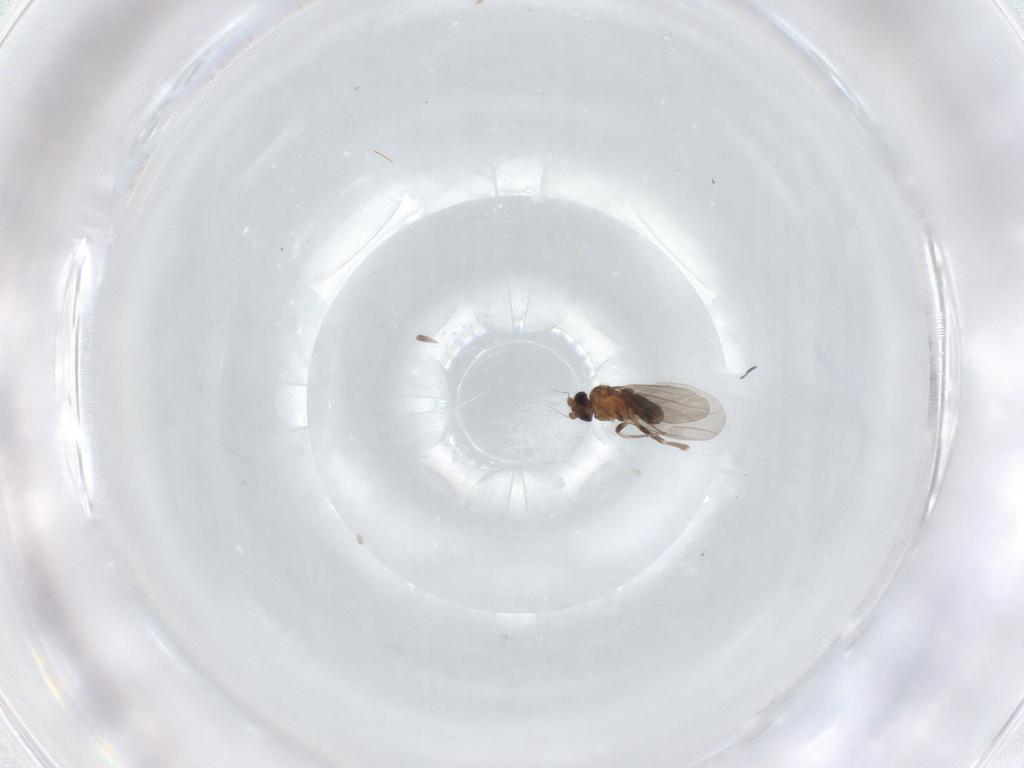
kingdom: Animalia
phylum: Arthropoda
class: Insecta
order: Diptera
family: Phoridae
